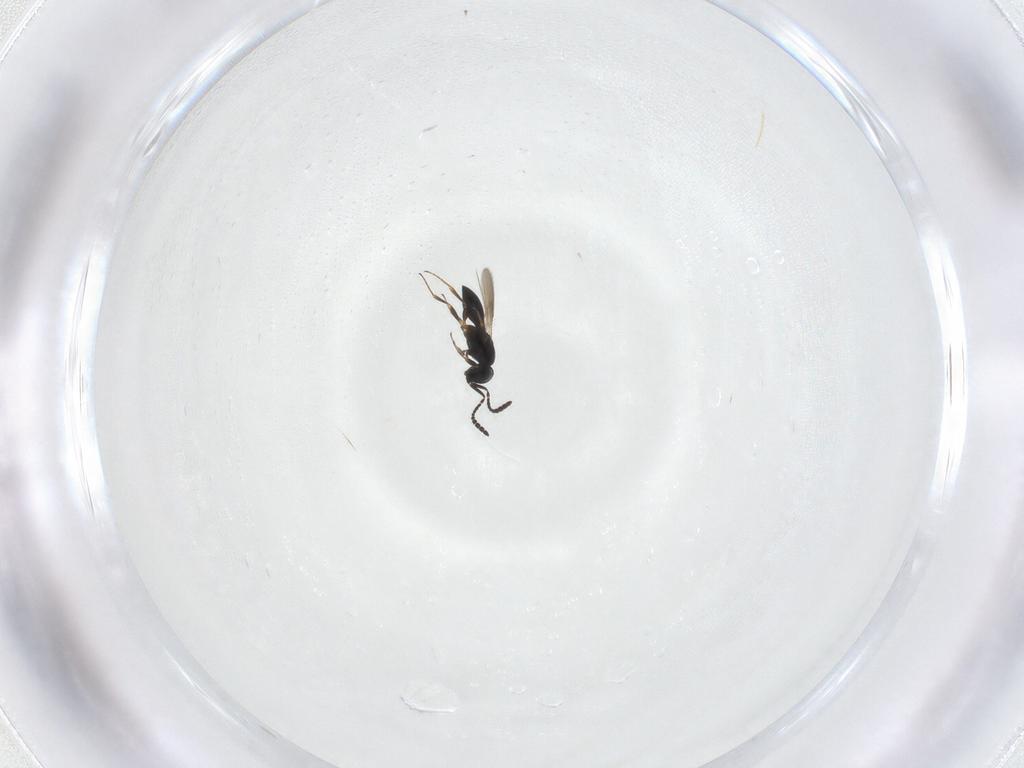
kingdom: Animalia
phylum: Arthropoda
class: Insecta
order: Hymenoptera
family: Scelionidae
